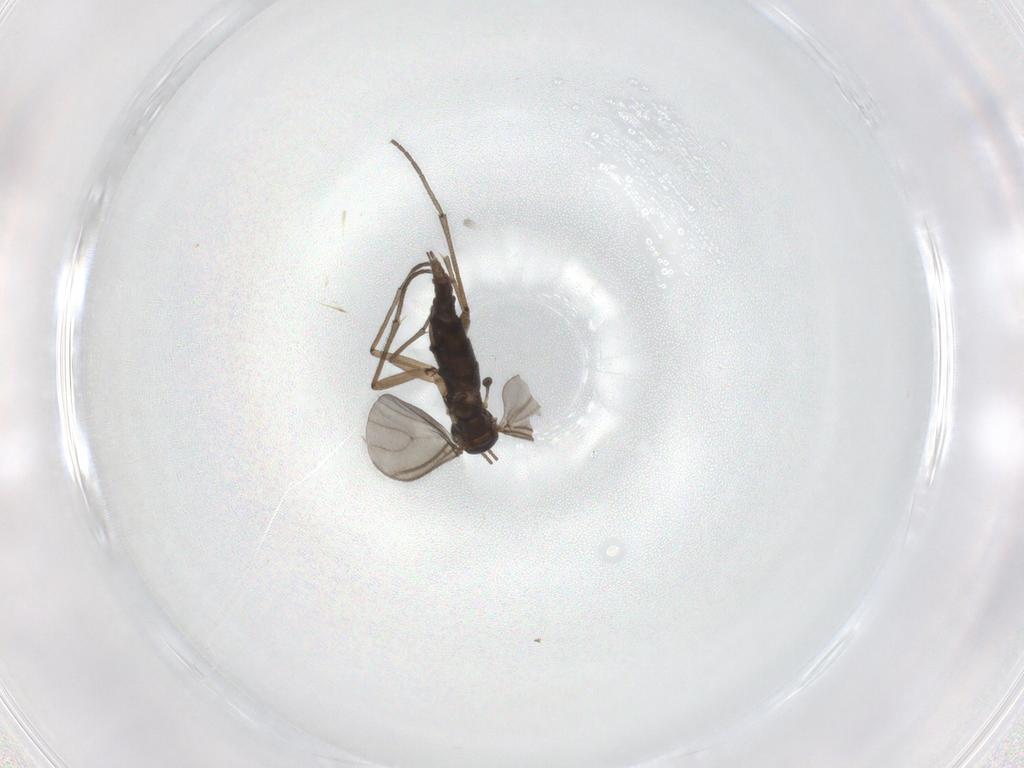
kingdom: Animalia
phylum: Arthropoda
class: Insecta
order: Diptera
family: Sciaridae
